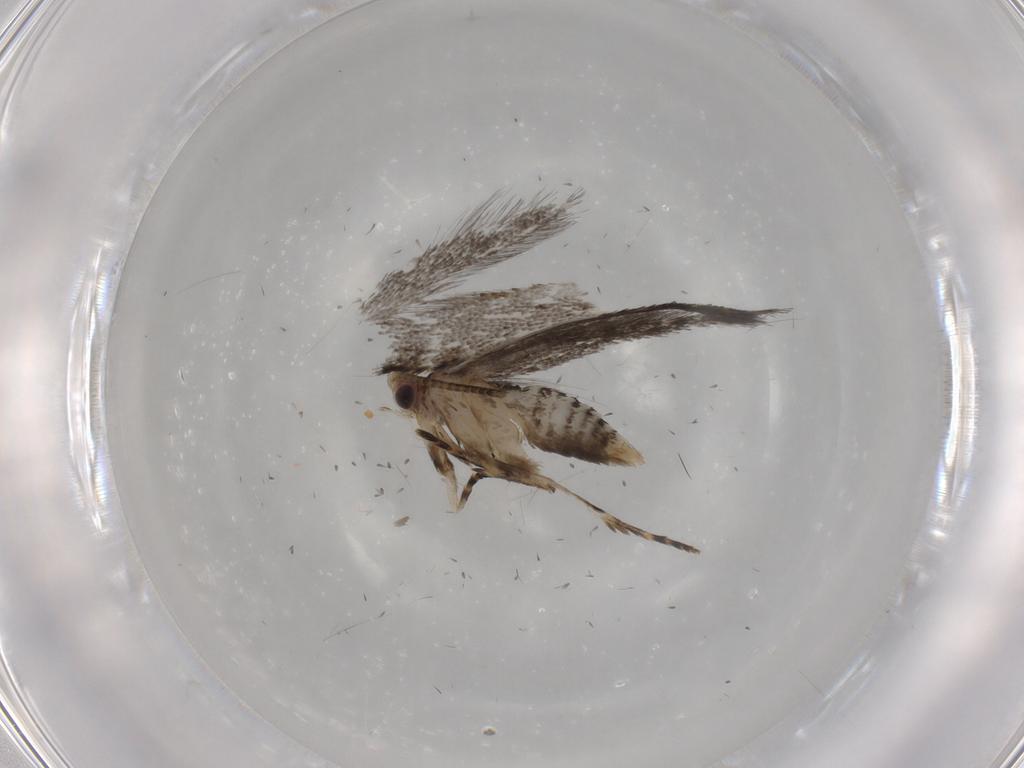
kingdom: Animalia
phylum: Arthropoda
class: Insecta
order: Lepidoptera
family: Tineidae
